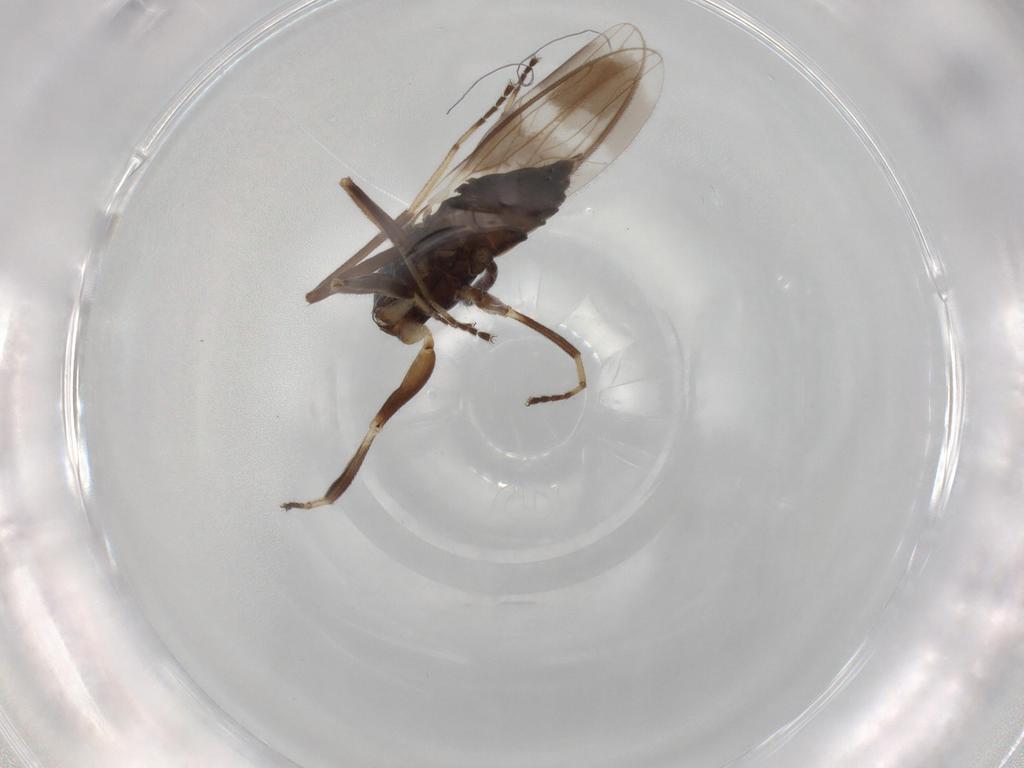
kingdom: Animalia
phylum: Arthropoda
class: Insecta
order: Diptera
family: Hybotidae
